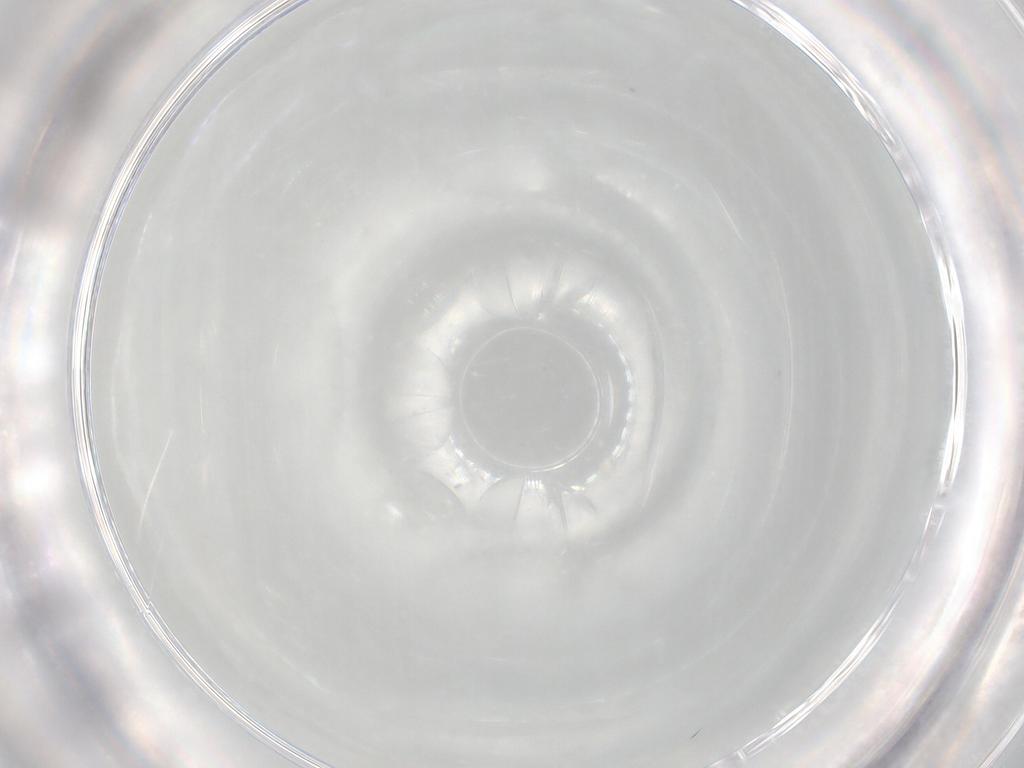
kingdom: Animalia
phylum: Arthropoda
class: Insecta
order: Diptera
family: Cecidomyiidae
